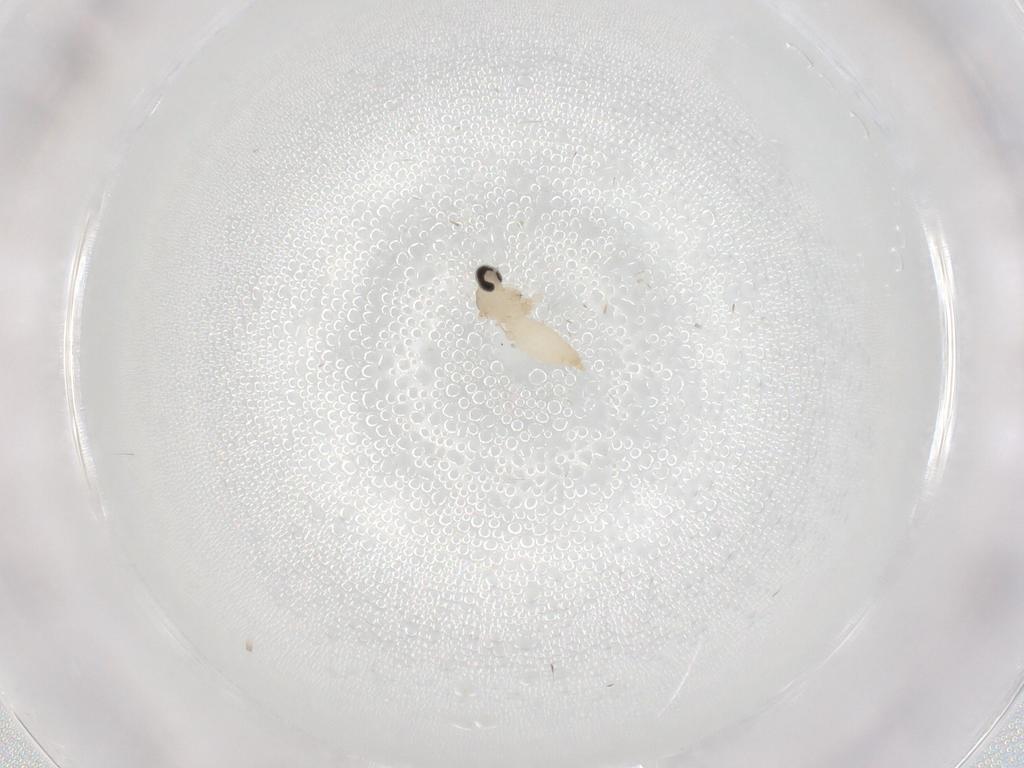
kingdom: Animalia
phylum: Arthropoda
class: Insecta
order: Diptera
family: Cecidomyiidae
